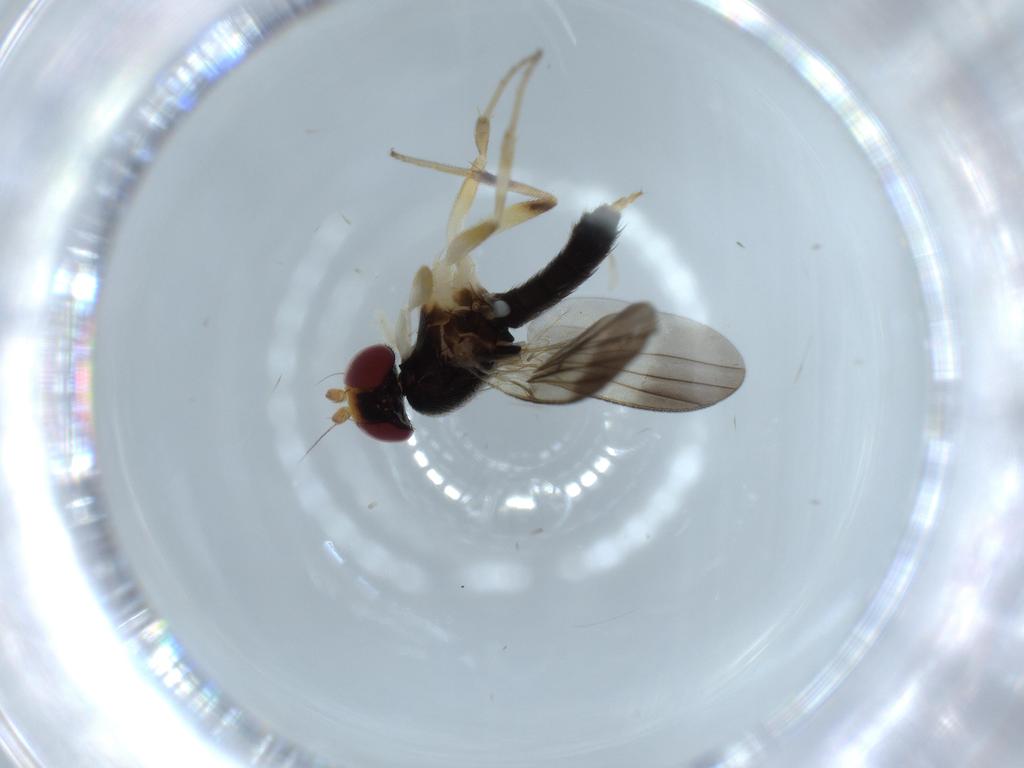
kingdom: Animalia
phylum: Arthropoda
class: Insecta
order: Diptera
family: Clusiidae
